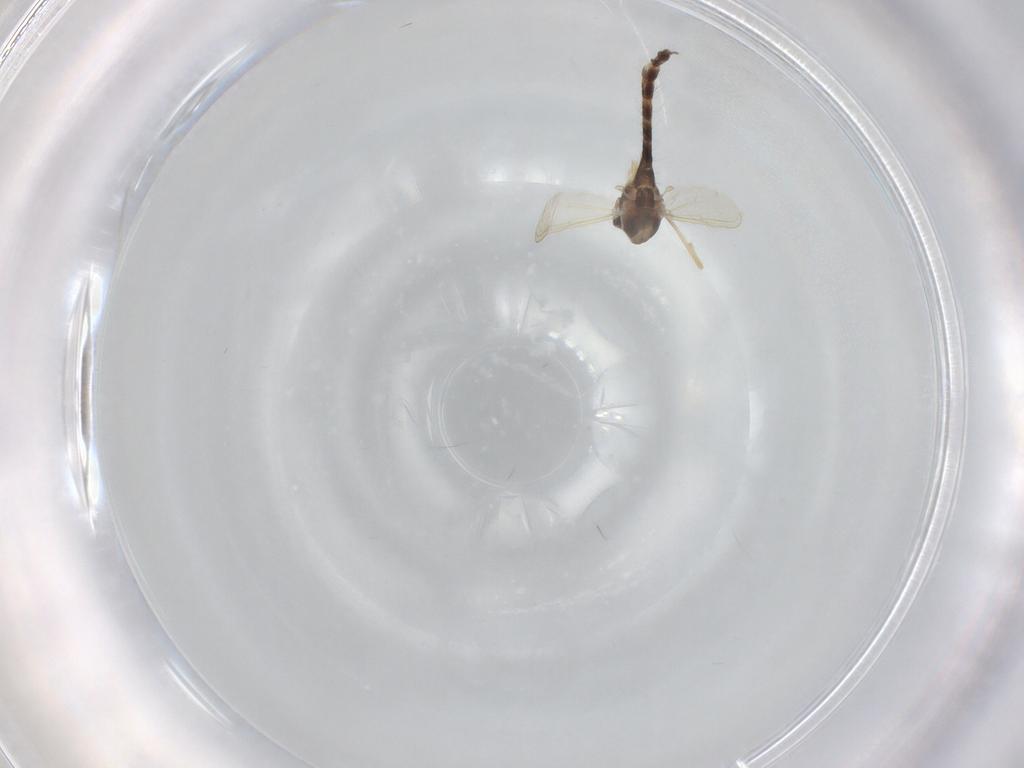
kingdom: Animalia
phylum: Arthropoda
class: Insecta
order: Diptera
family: Chironomidae
